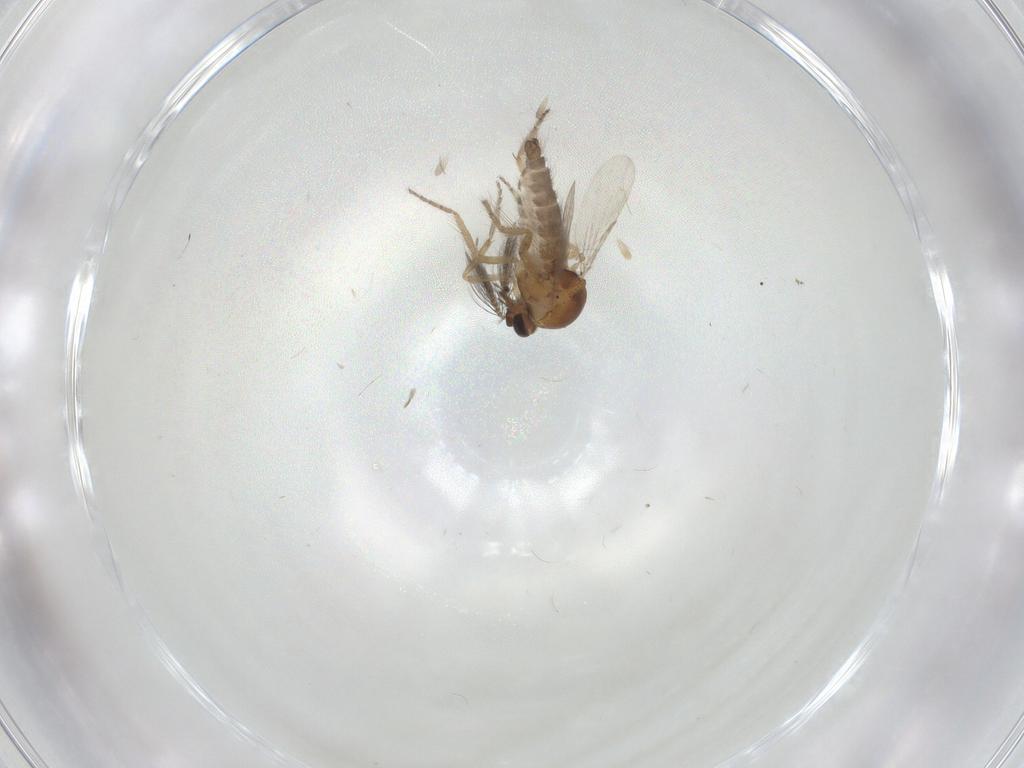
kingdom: Animalia
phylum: Arthropoda
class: Insecta
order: Diptera
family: Ceratopogonidae
